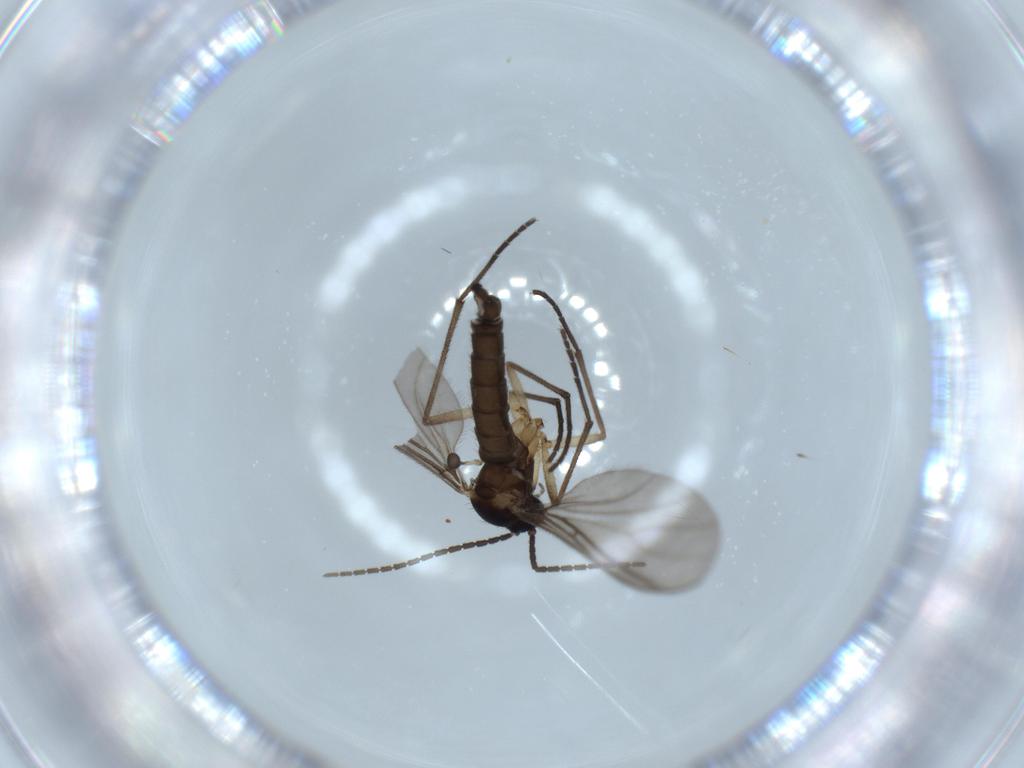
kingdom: Animalia
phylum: Arthropoda
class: Insecta
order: Diptera
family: Sciaridae
